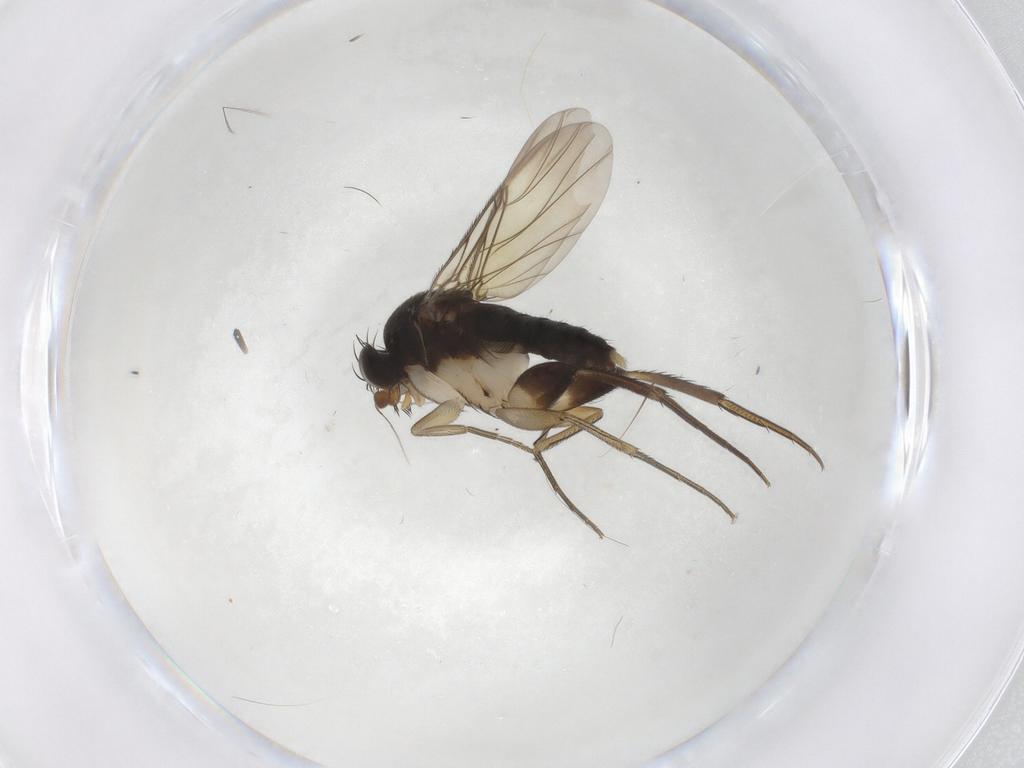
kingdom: Animalia
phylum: Arthropoda
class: Insecta
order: Diptera
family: Phoridae
